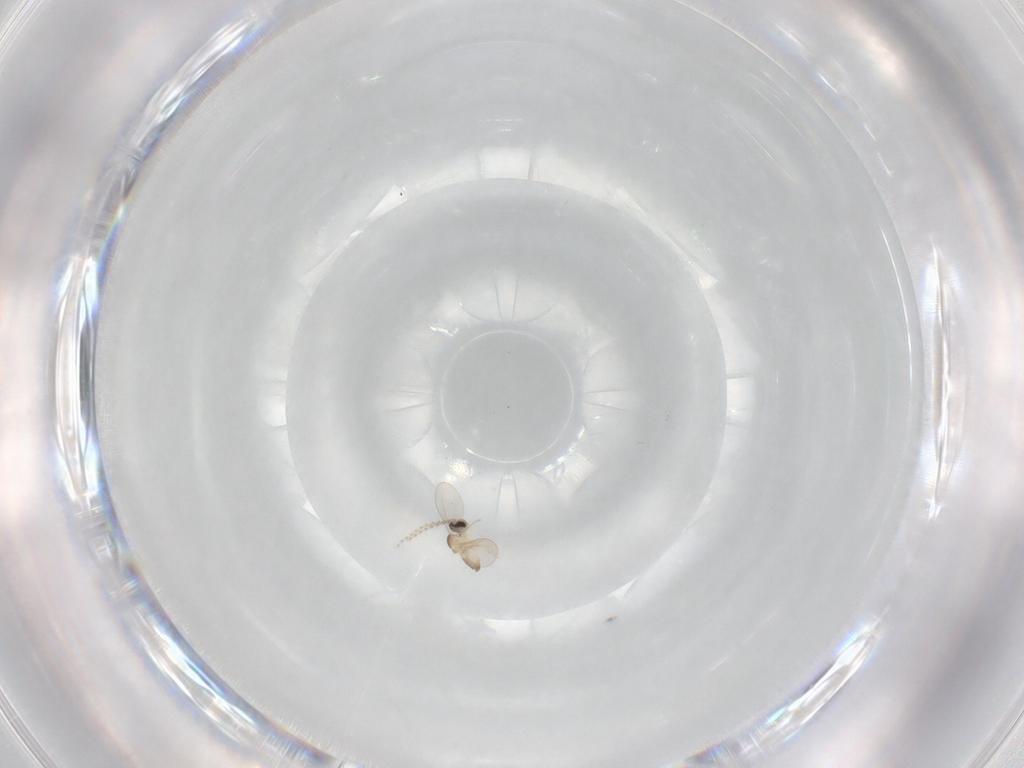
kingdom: Animalia
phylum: Arthropoda
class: Insecta
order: Diptera
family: Cecidomyiidae
